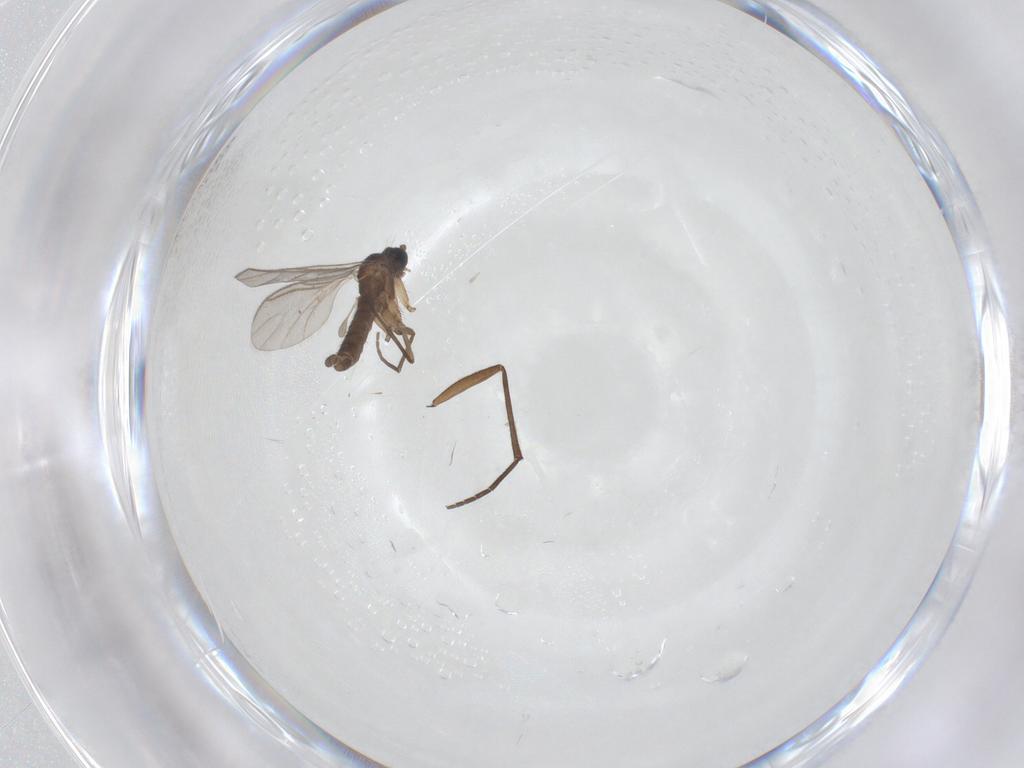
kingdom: Animalia
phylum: Arthropoda
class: Insecta
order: Diptera
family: Sciaridae
